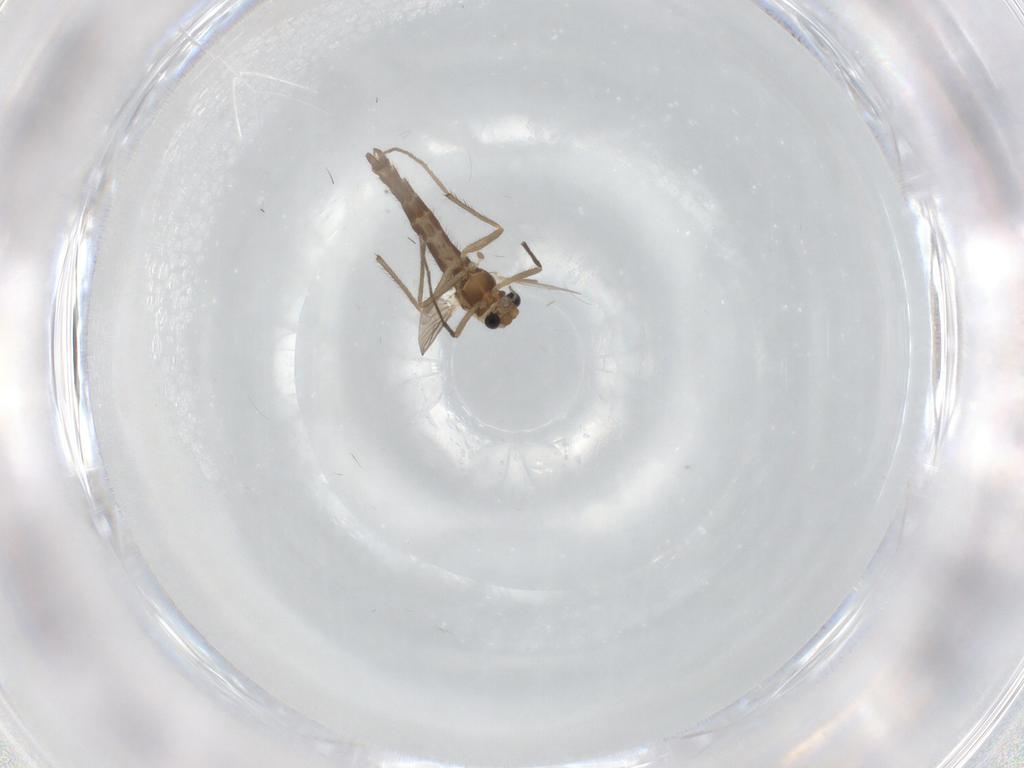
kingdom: Animalia
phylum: Arthropoda
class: Insecta
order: Diptera
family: Chironomidae
